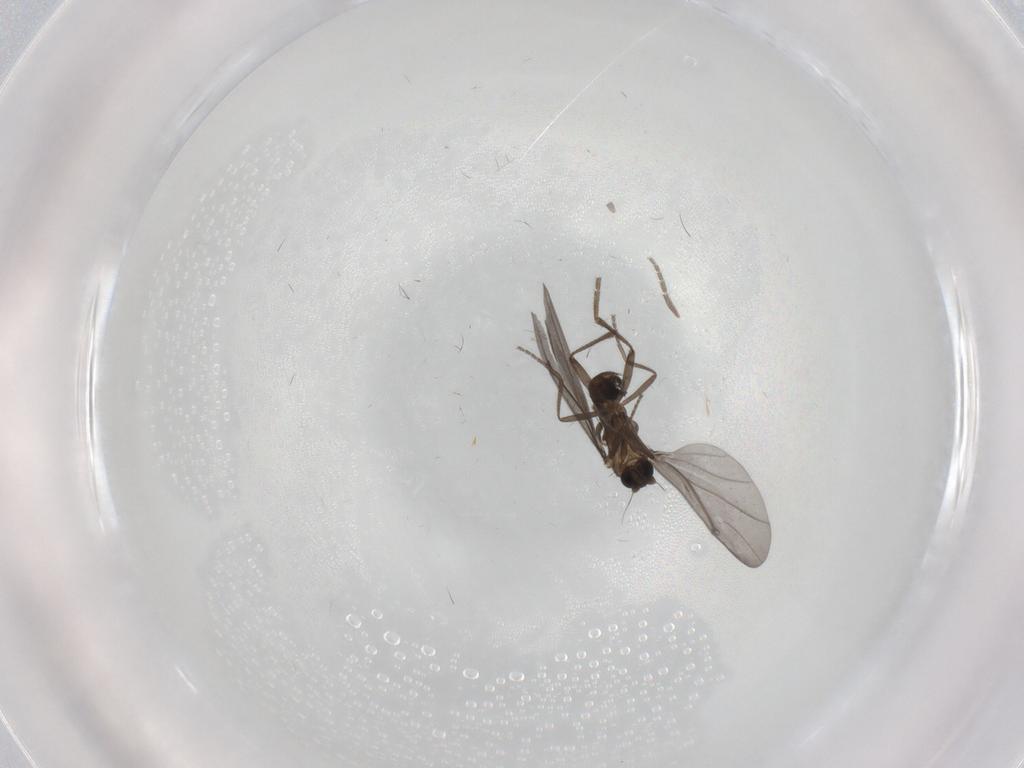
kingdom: Animalia
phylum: Arthropoda
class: Insecta
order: Diptera
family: Phoridae
